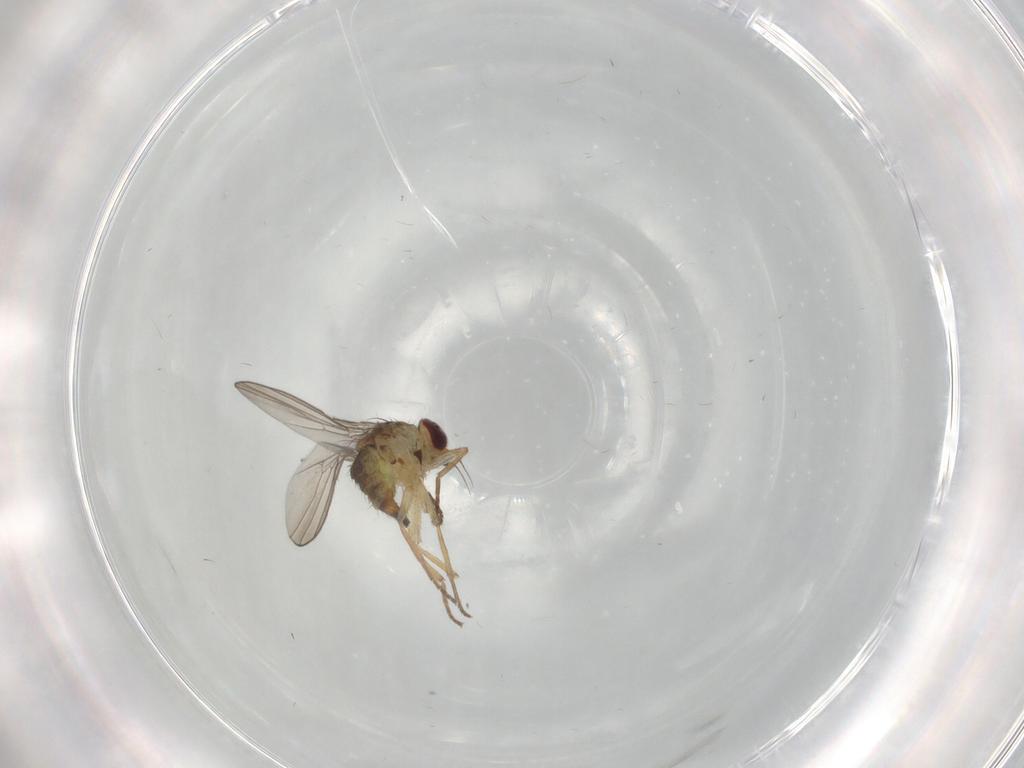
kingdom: Animalia
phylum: Arthropoda
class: Insecta
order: Diptera
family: Agromyzidae
